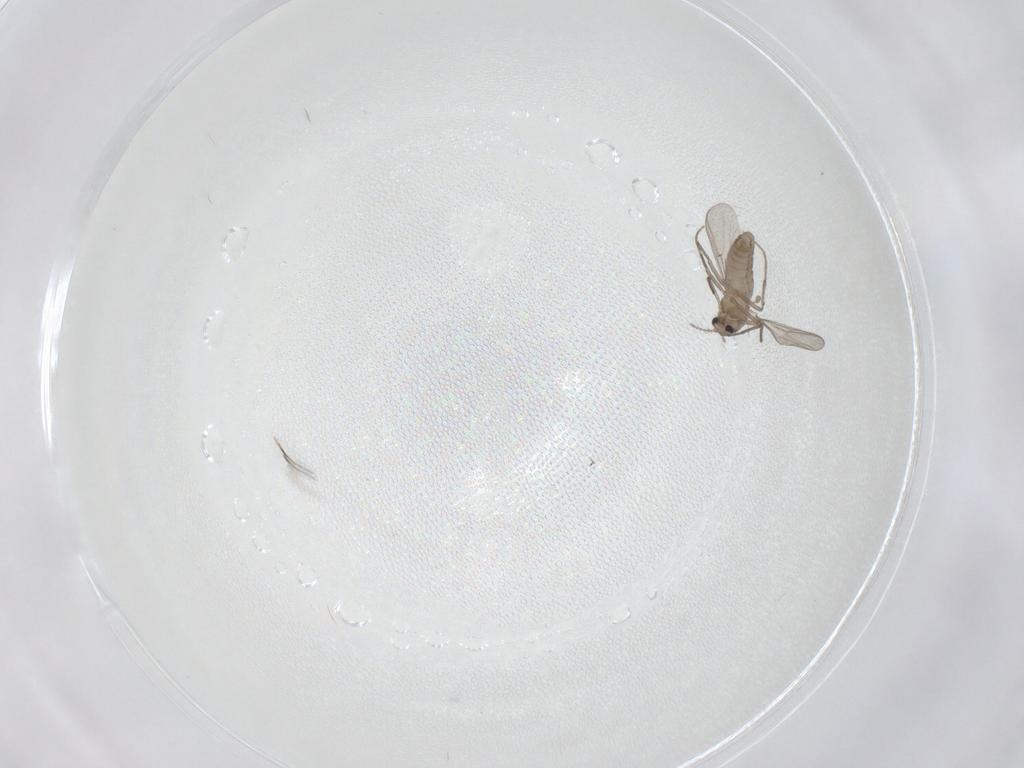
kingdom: Animalia
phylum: Arthropoda
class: Insecta
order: Diptera
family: Chironomidae
